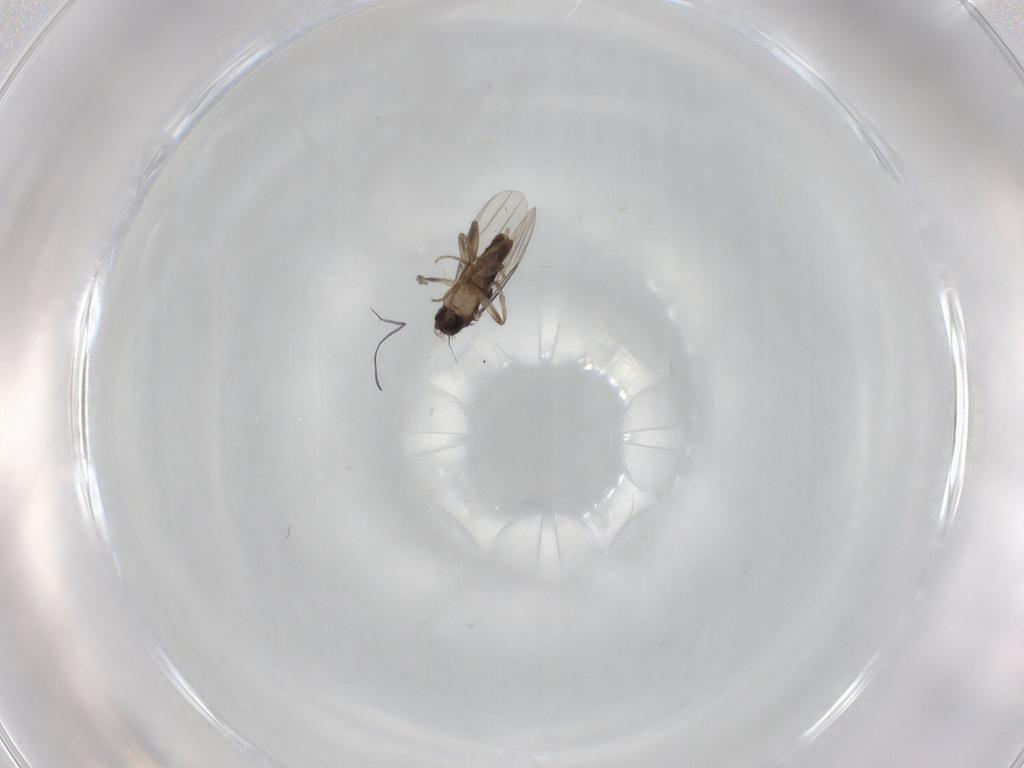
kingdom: Animalia
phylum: Arthropoda
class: Insecta
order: Diptera
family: Phoridae
